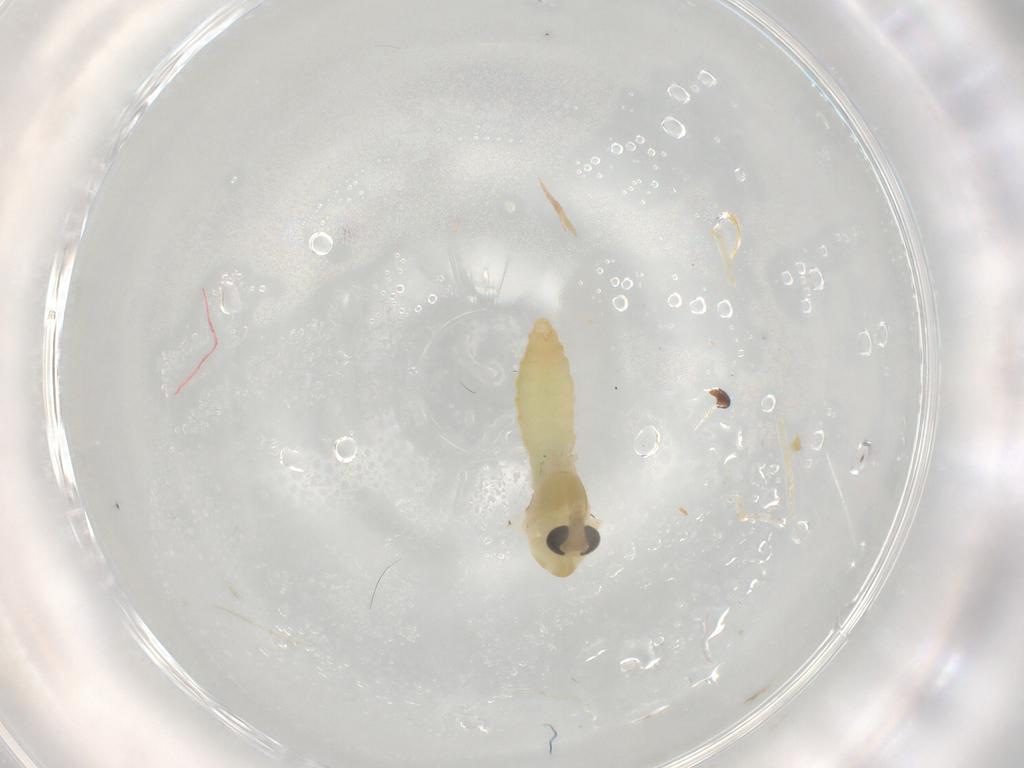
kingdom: Animalia
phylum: Arthropoda
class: Insecta
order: Diptera
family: Chironomidae
